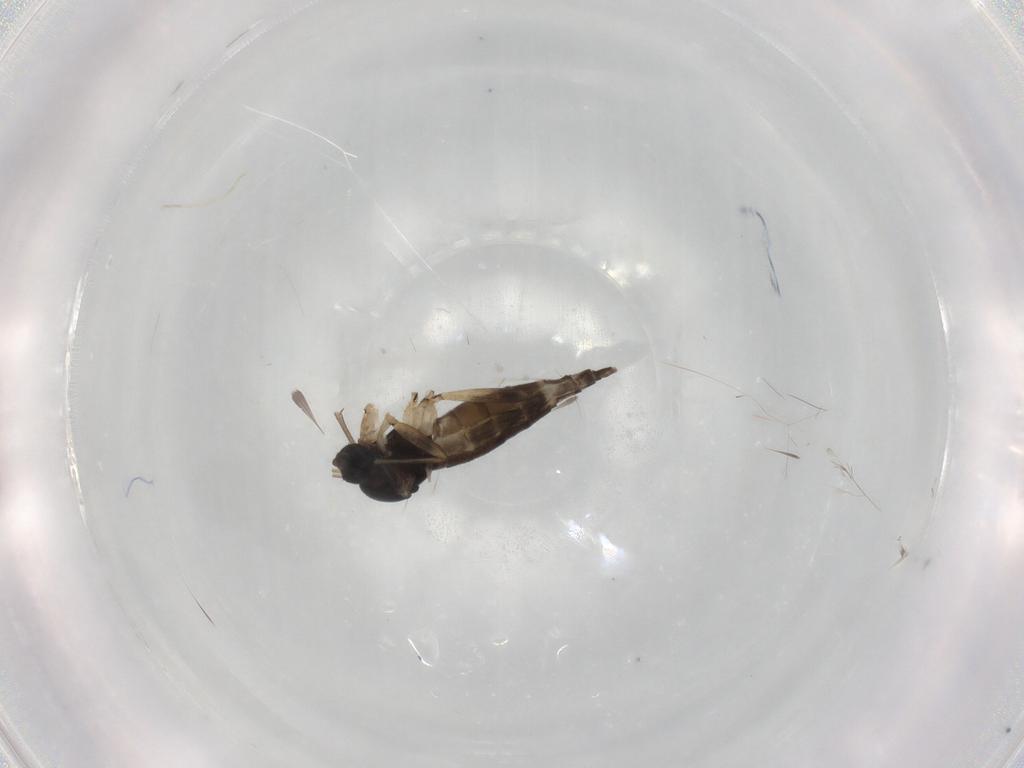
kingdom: Animalia
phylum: Arthropoda
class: Insecta
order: Diptera
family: Sciaridae
